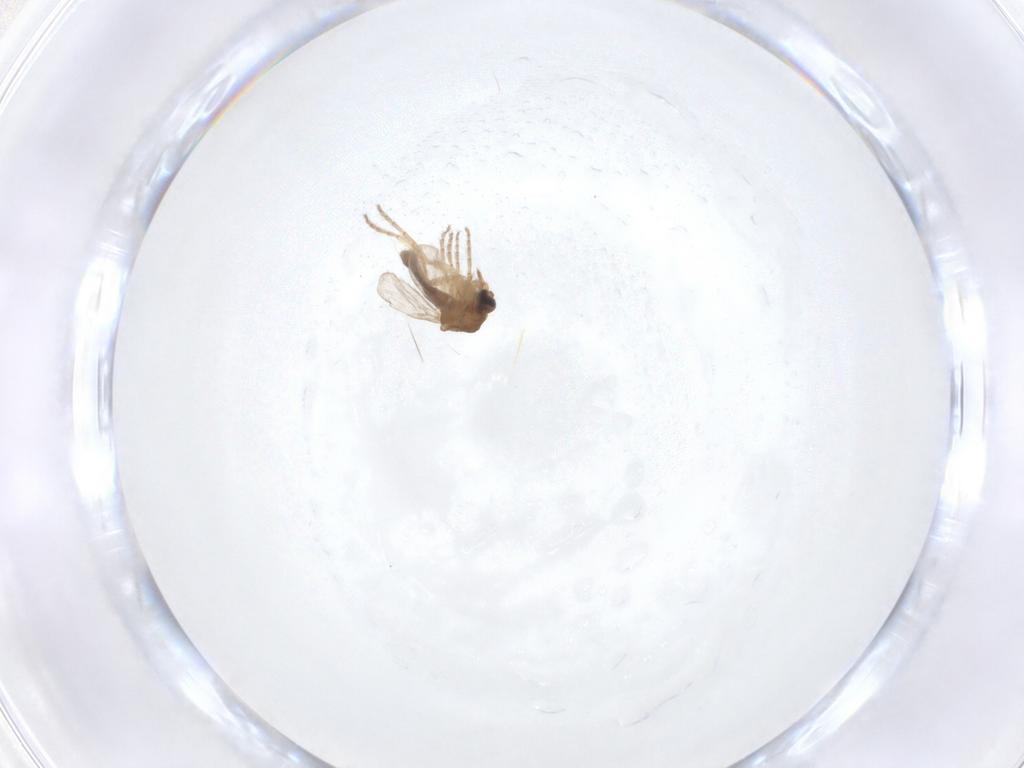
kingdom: Animalia
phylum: Arthropoda
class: Insecta
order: Diptera
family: Ceratopogonidae
